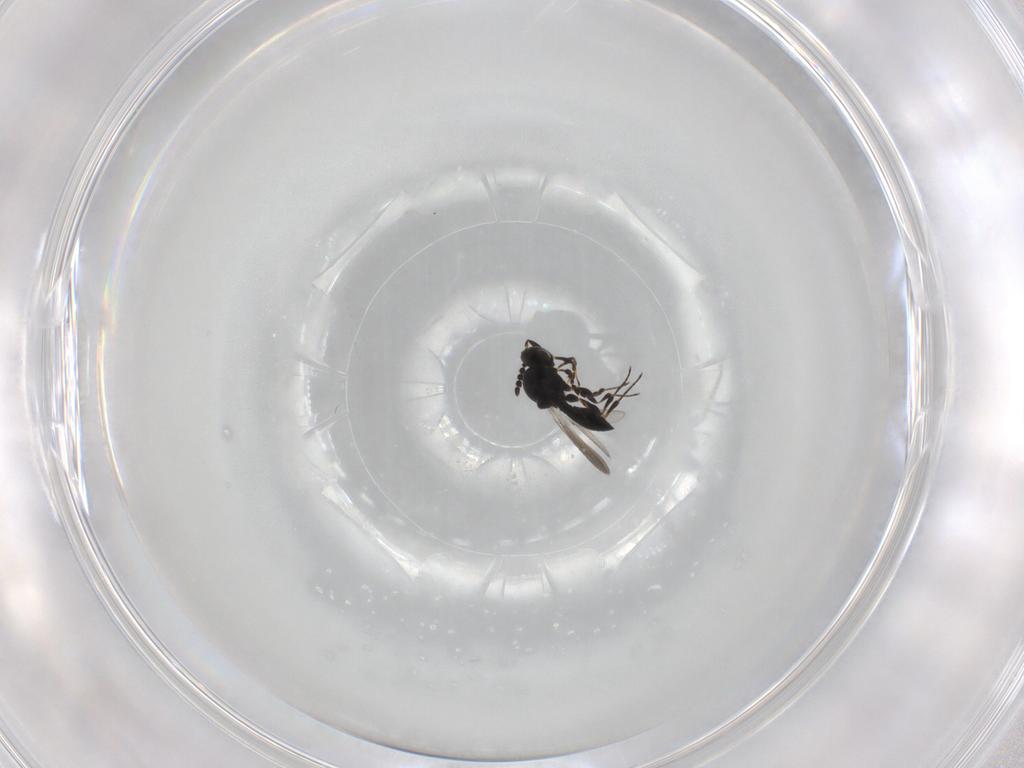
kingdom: Animalia
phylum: Arthropoda
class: Insecta
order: Hymenoptera
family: Platygastridae
